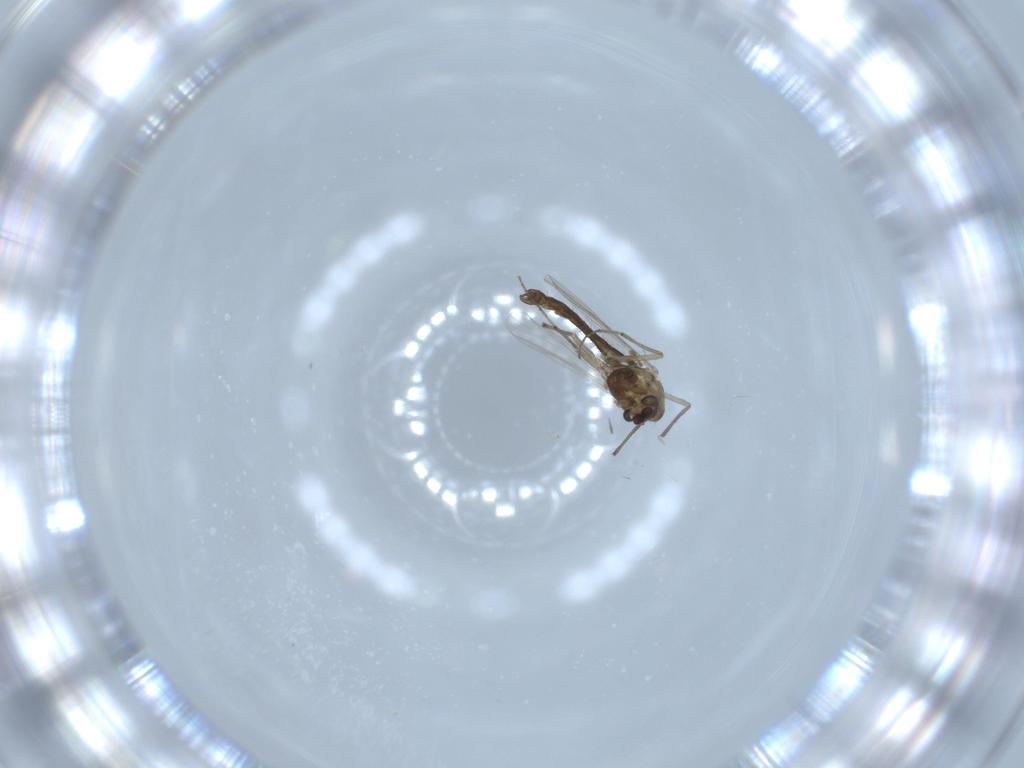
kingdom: Animalia
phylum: Arthropoda
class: Insecta
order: Diptera
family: Chironomidae
